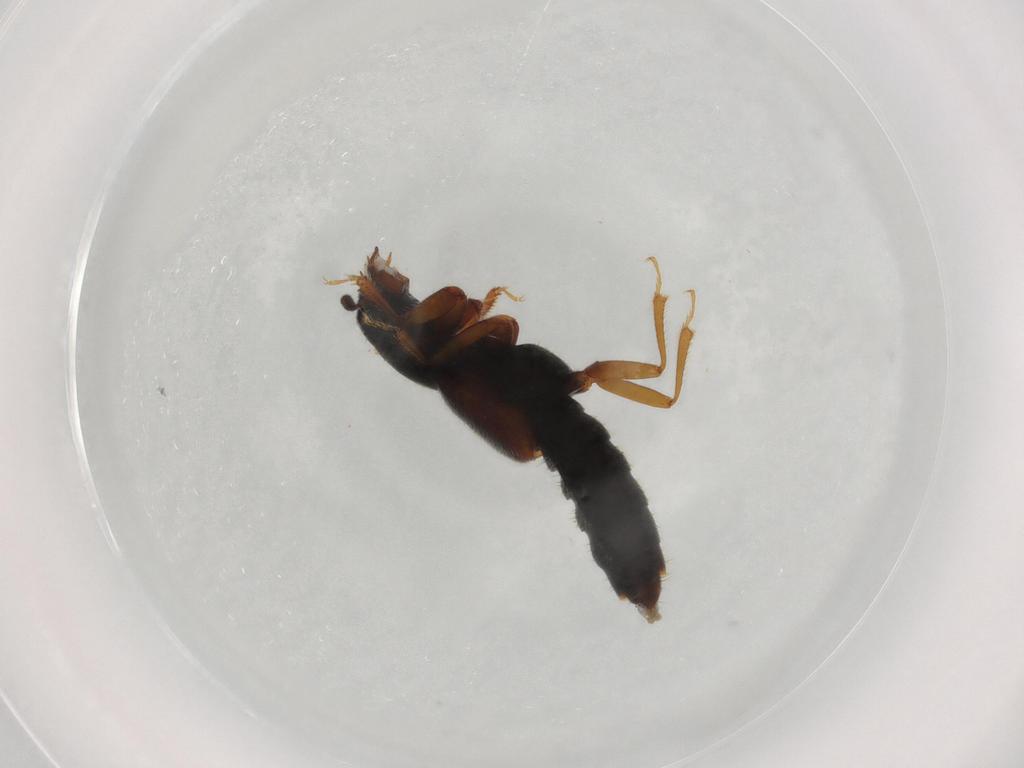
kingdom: Animalia
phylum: Arthropoda
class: Insecta
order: Coleoptera
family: Staphylinidae
